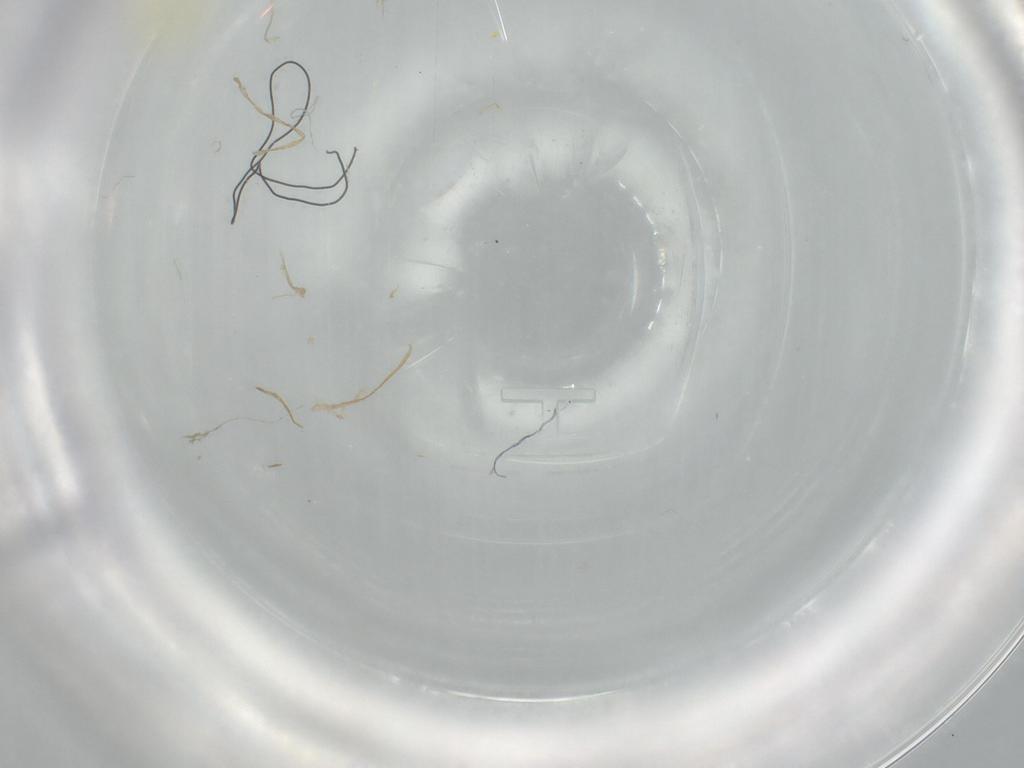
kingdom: Animalia
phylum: Arthropoda
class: Insecta
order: Hemiptera
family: Aleyrodidae
